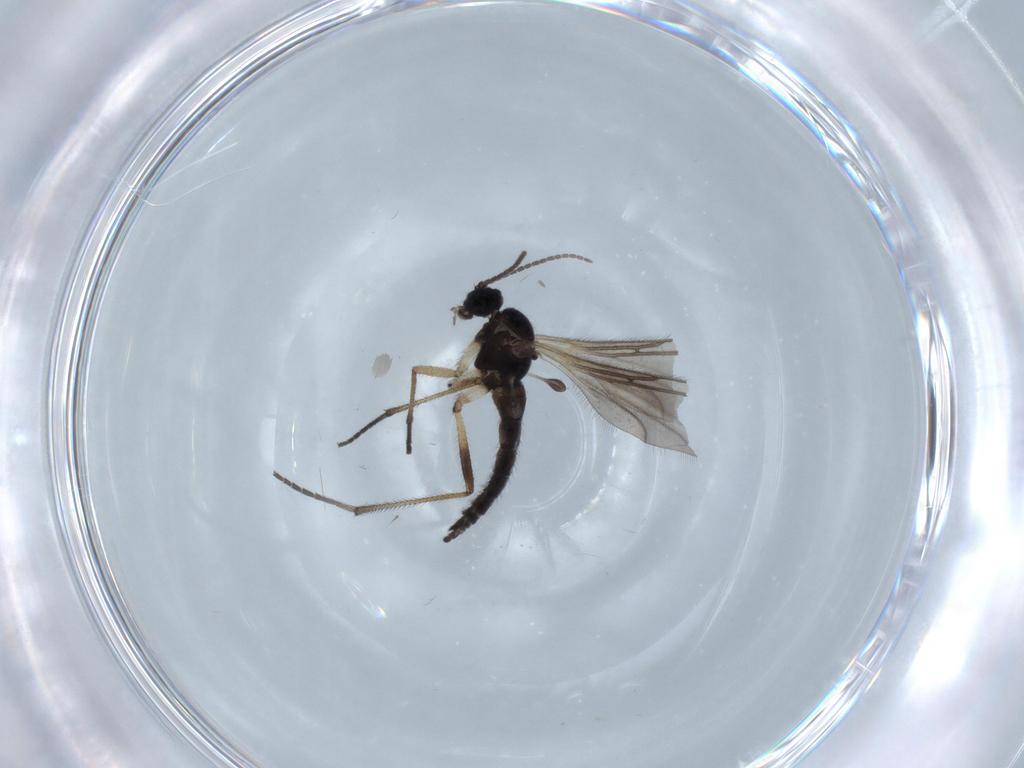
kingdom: Animalia
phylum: Arthropoda
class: Insecta
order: Diptera
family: Sciaridae
